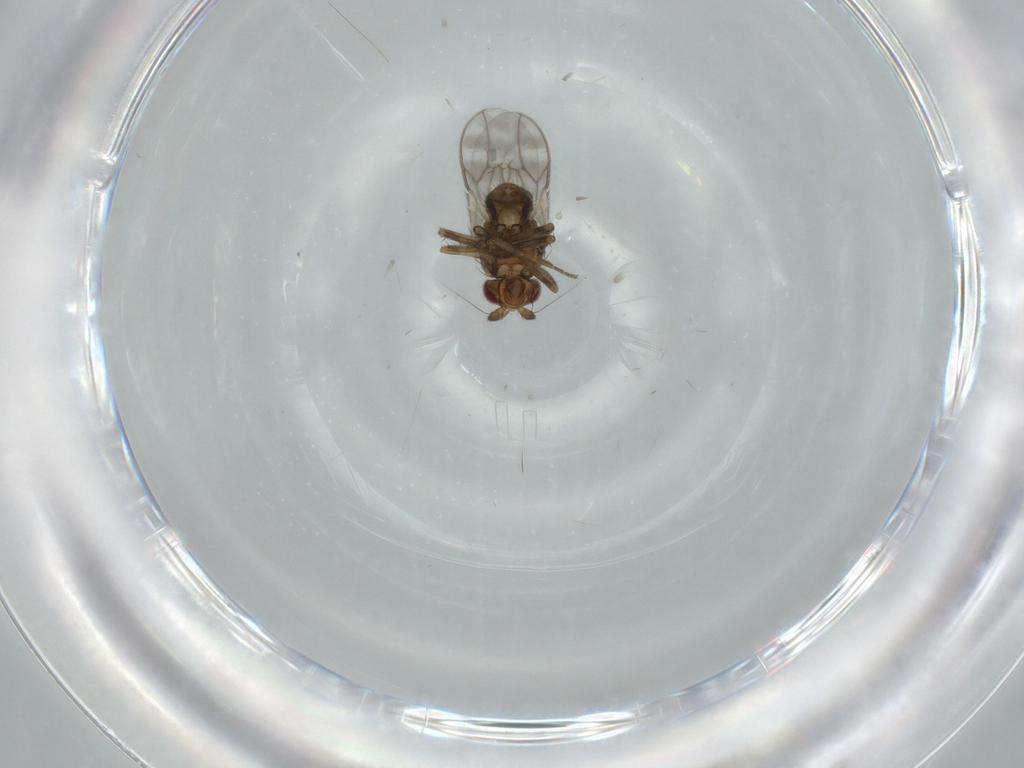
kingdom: Animalia
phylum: Arthropoda
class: Insecta
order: Diptera
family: Sphaeroceridae
